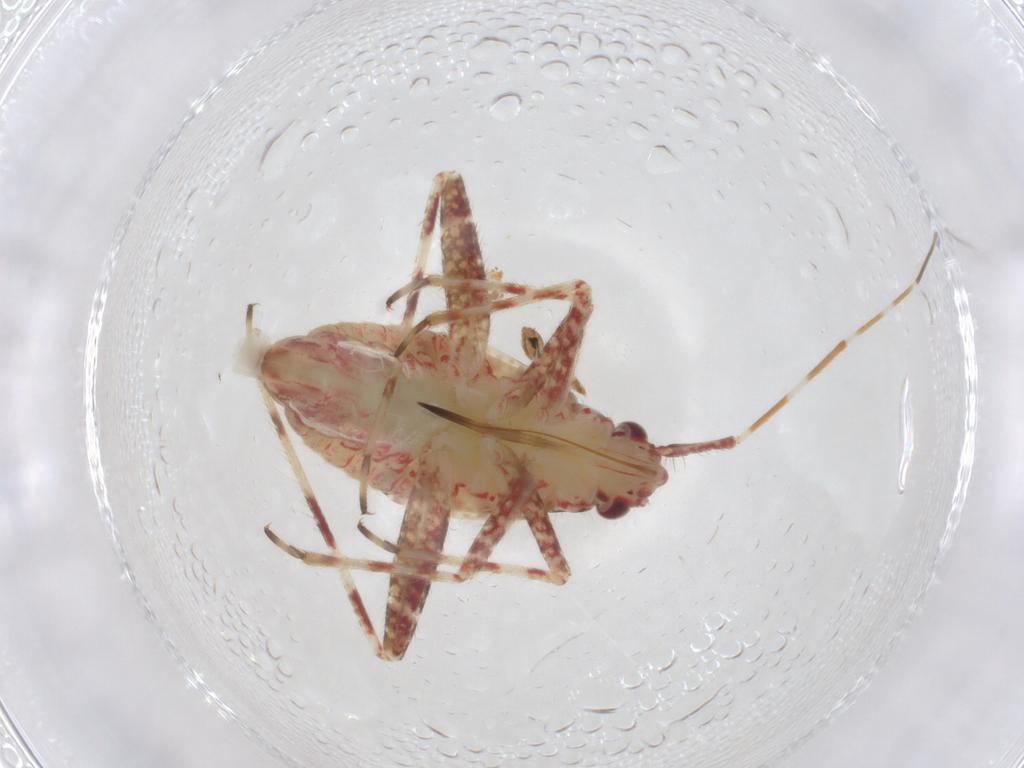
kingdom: Animalia
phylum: Arthropoda
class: Insecta
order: Hemiptera
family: Miridae
